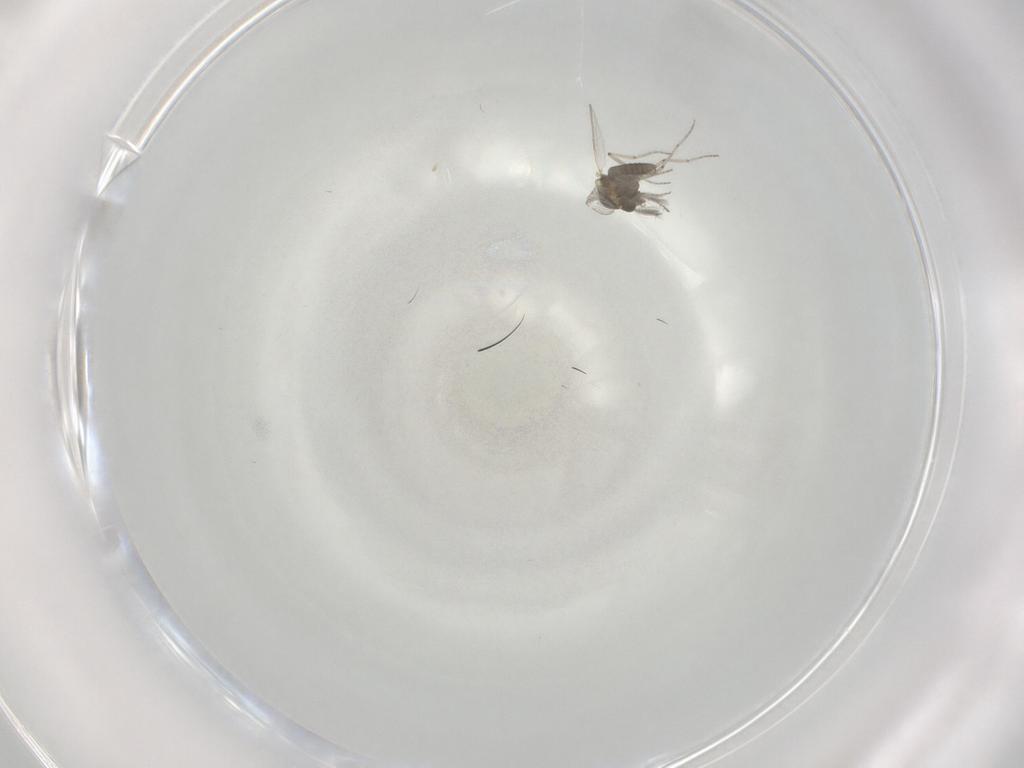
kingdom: Animalia
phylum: Arthropoda
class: Insecta
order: Diptera
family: Ceratopogonidae
